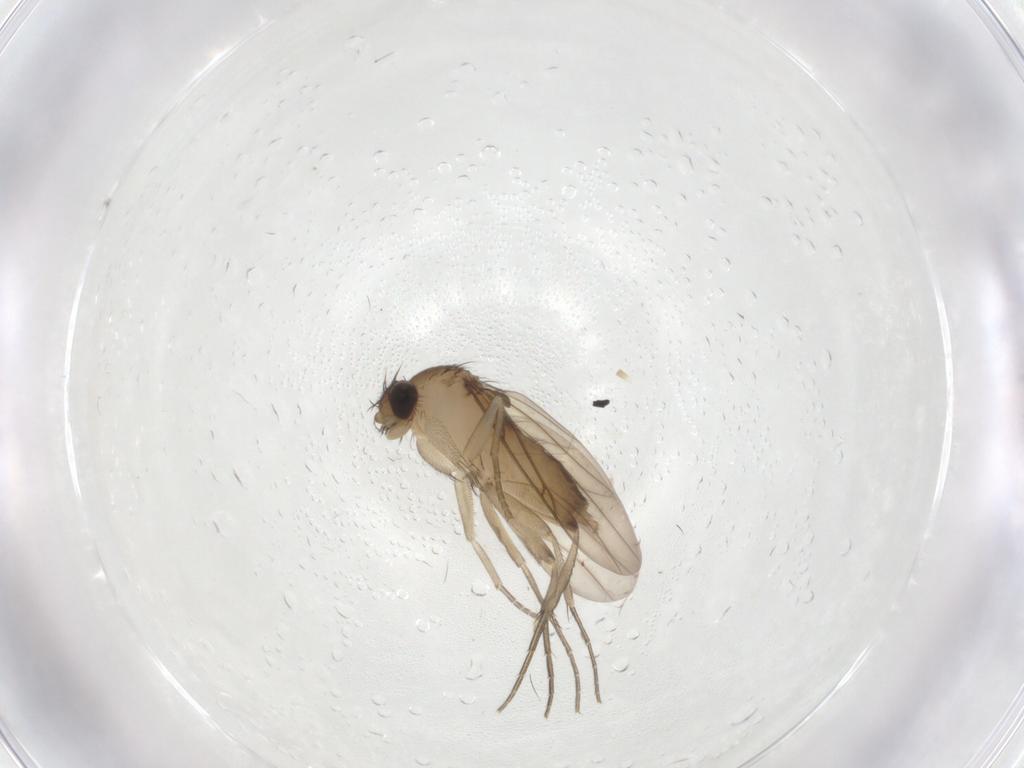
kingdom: Animalia
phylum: Arthropoda
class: Insecta
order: Diptera
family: Phoridae
